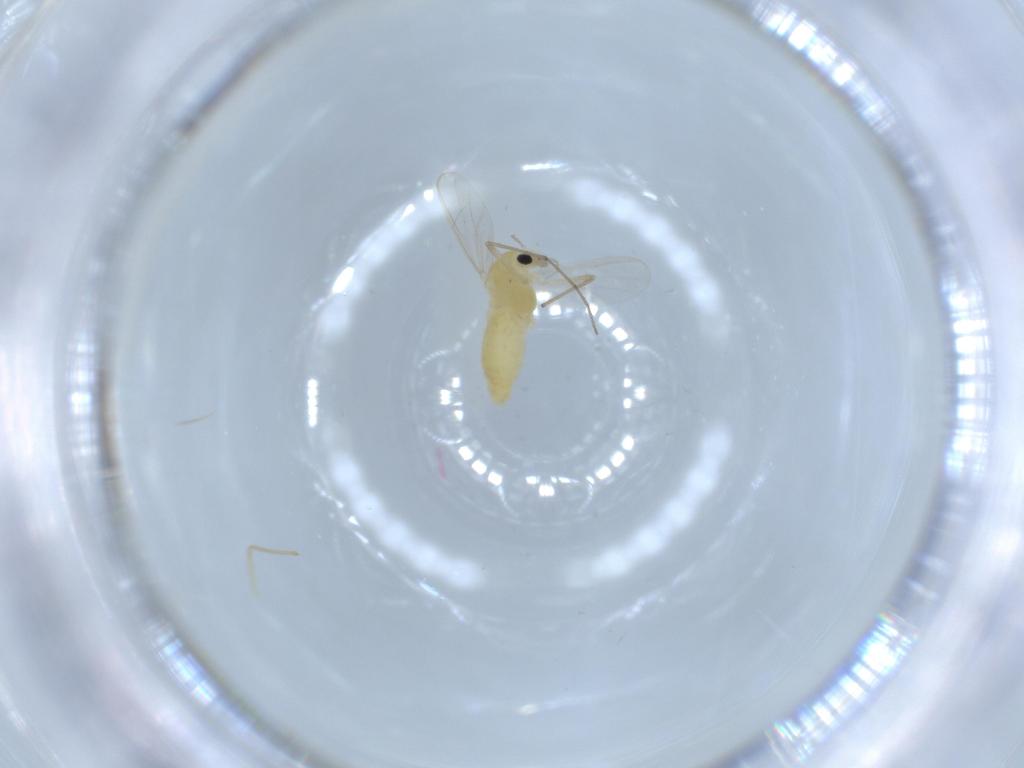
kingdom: Animalia
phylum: Arthropoda
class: Insecta
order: Diptera
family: Chironomidae
